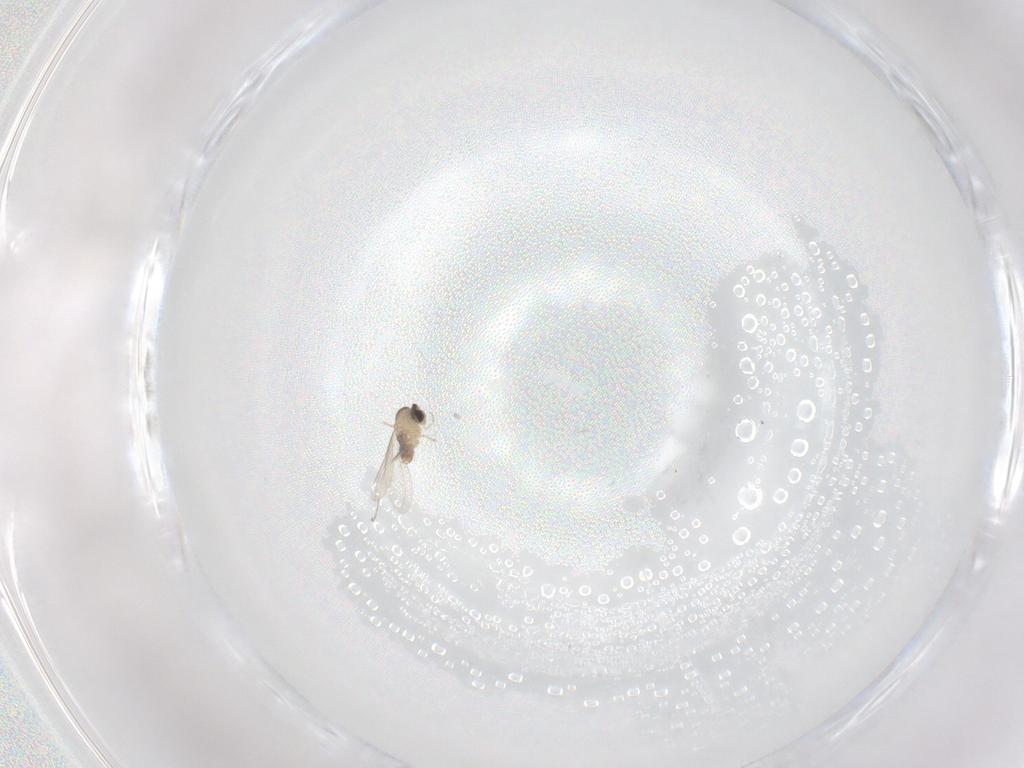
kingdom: Animalia
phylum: Arthropoda
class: Insecta
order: Diptera
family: Cecidomyiidae
